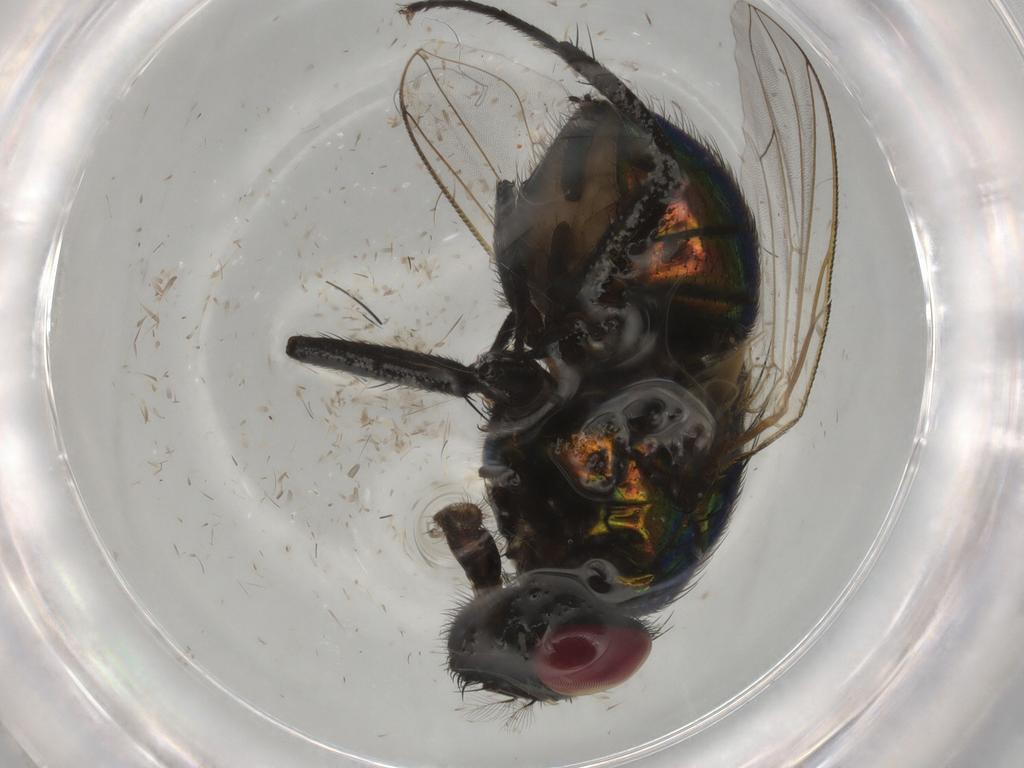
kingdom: Animalia
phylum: Arthropoda
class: Insecta
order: Diptera
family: Muscidae
